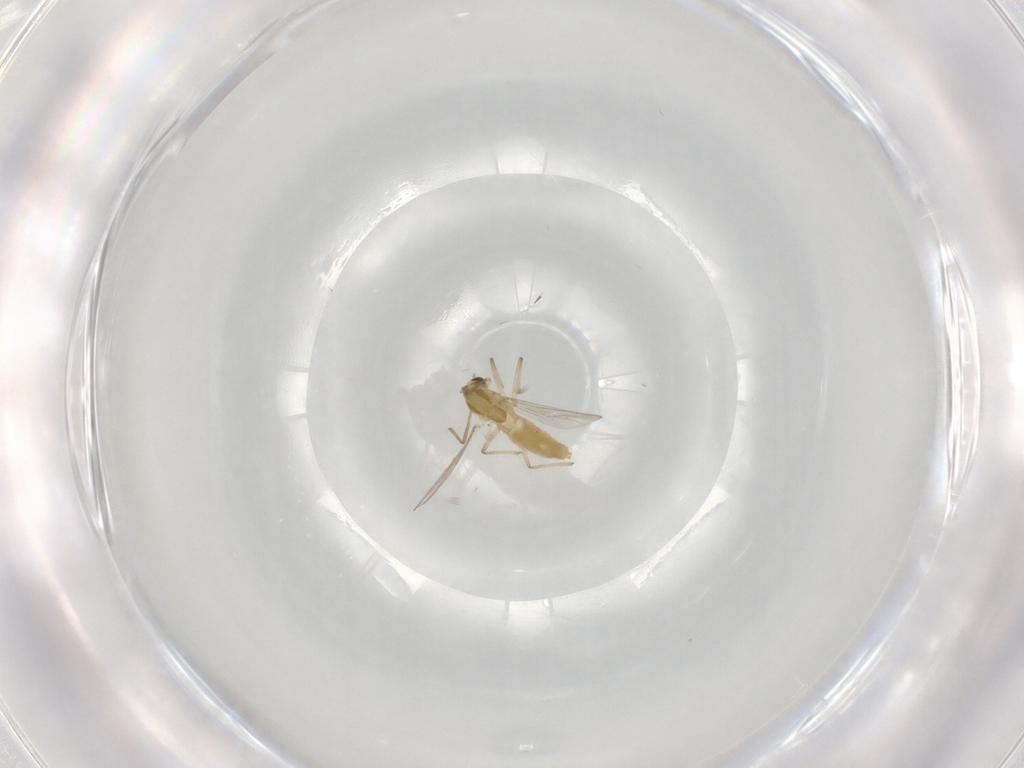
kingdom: Animalia
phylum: Arthropoda
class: Insecta
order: Diptera
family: Chironomidae
